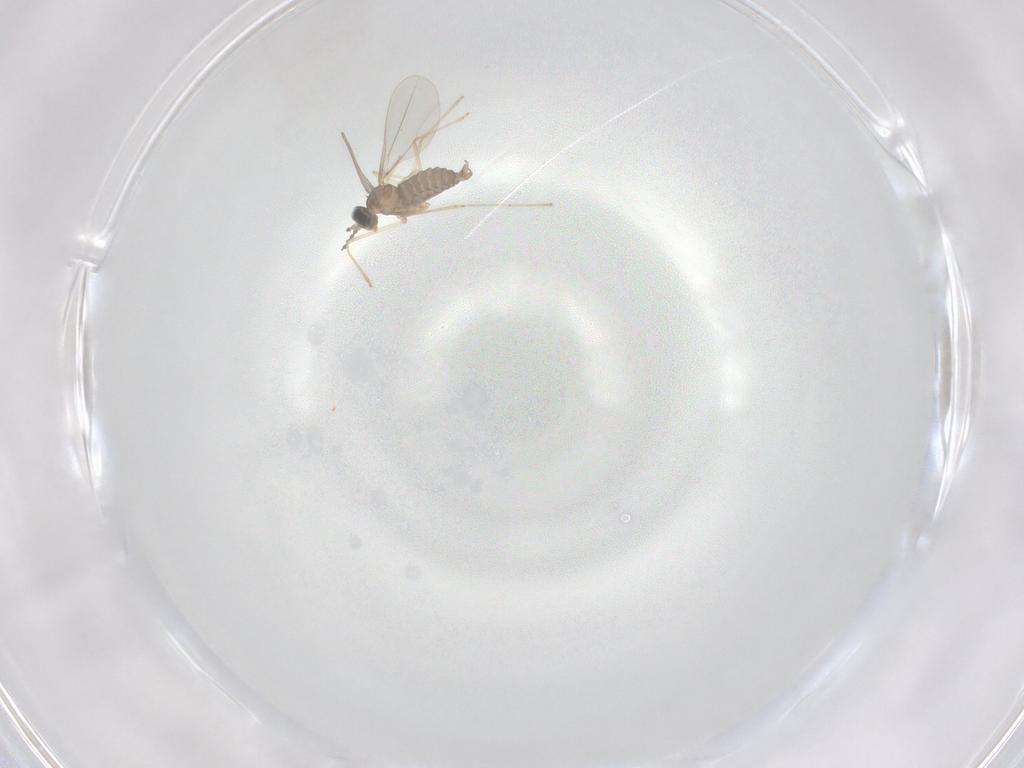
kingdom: Animalia
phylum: Arthropoda
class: Insecta
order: Diptera
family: Cecidomyiidae
